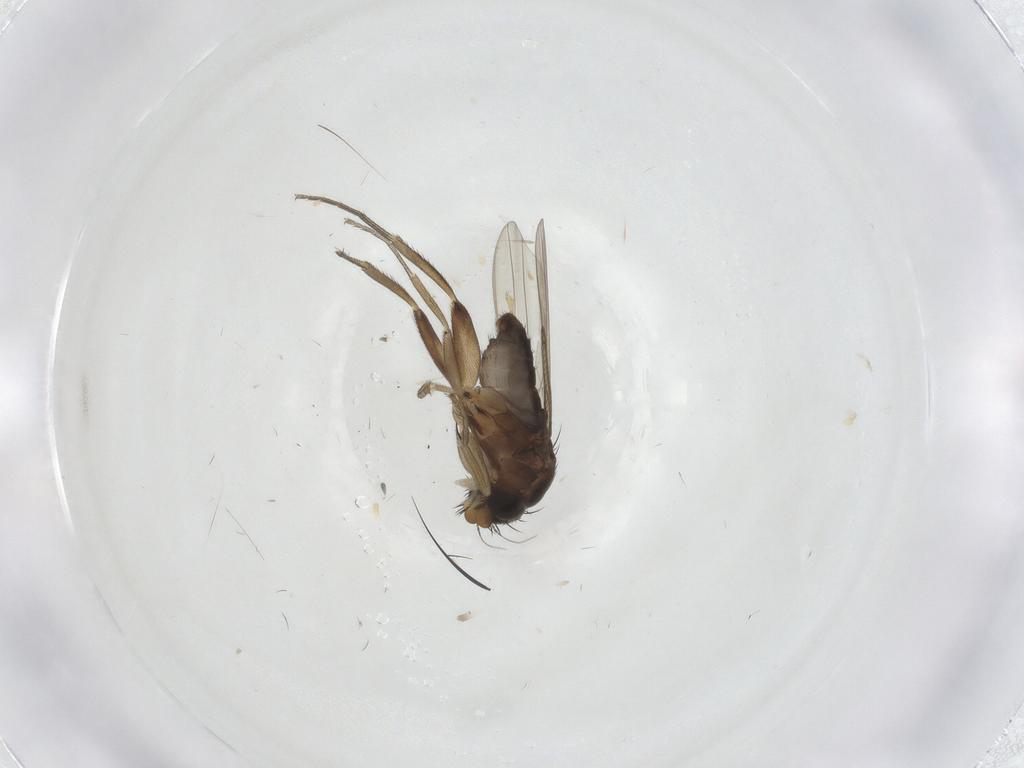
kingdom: Animalia
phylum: Arthropoda
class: Insecta
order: Diptera
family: Phoridae
